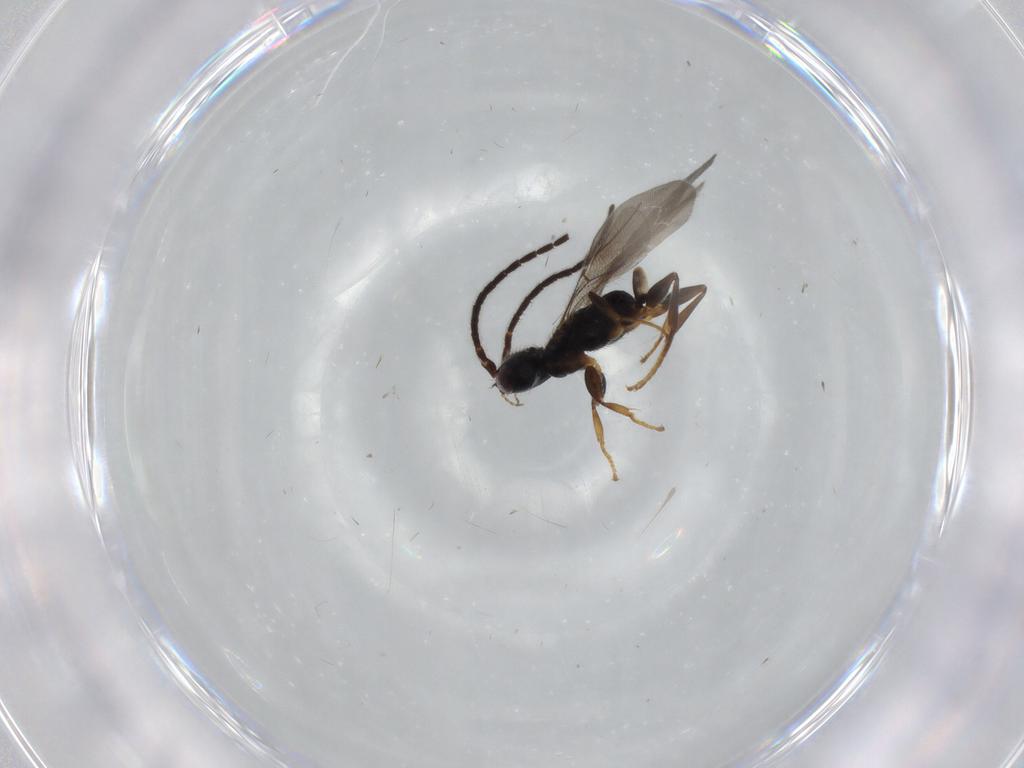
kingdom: Animalia
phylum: Arthropoda
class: Insecta
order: Hymenoptera
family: Bethylidae
